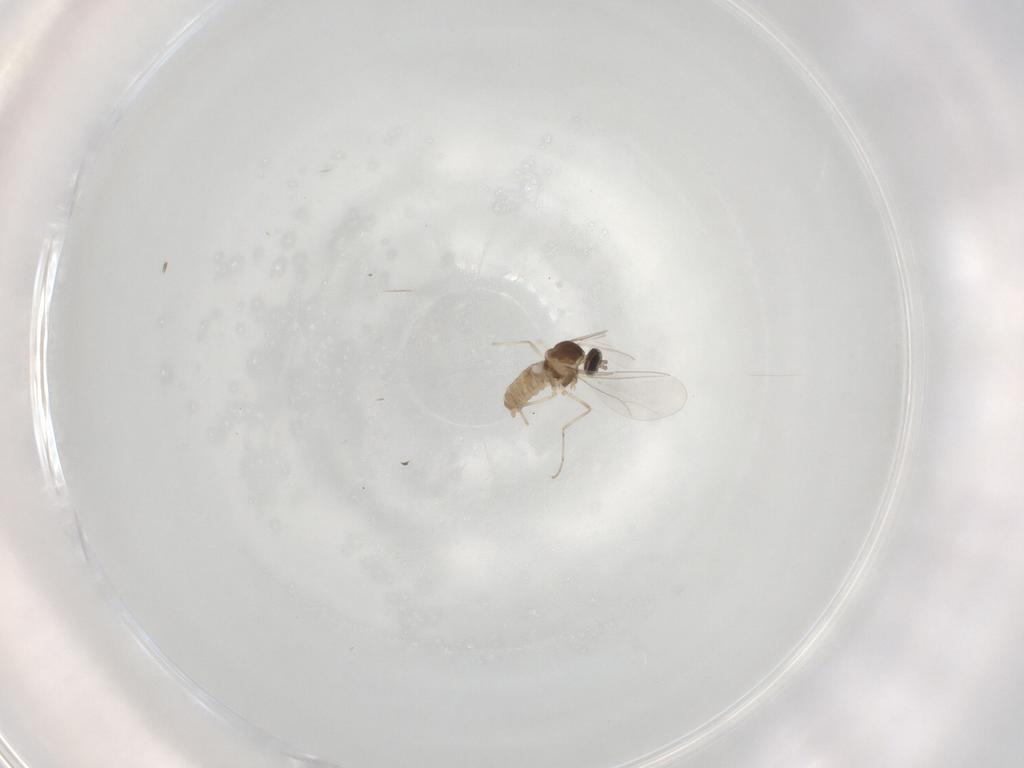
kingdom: Animalia
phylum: Arthropoda
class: Insecta
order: Diptera
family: Cecidomyiidae
